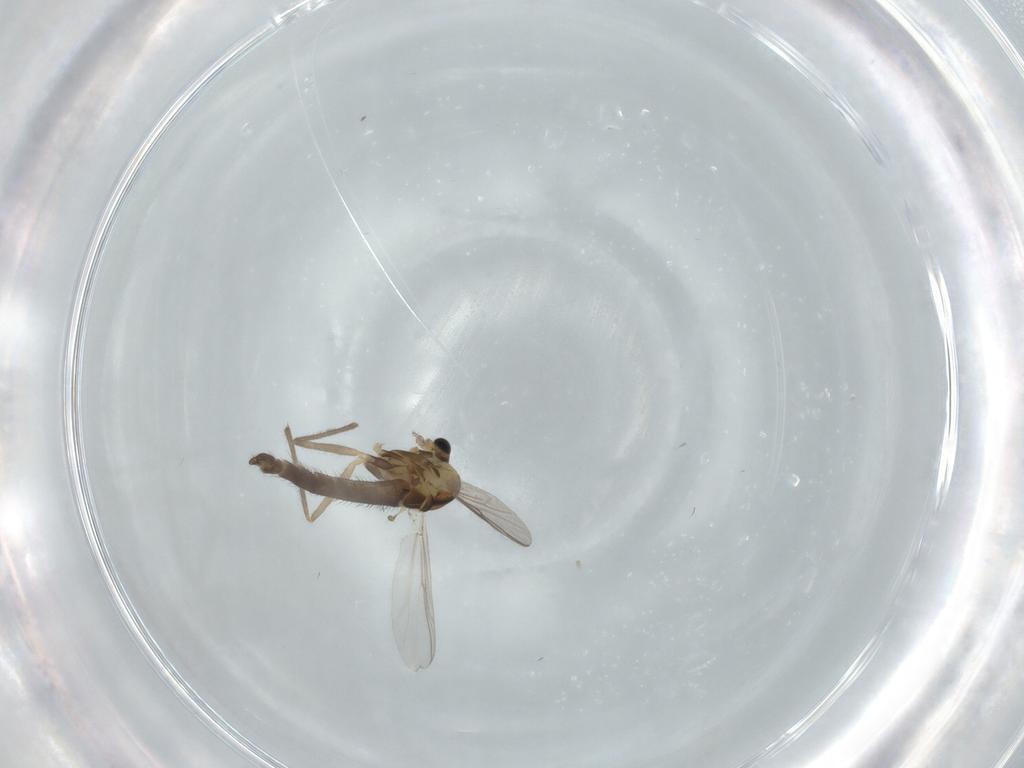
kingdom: Animalia
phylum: Arthropoda
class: Insecta
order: Diptera
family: Chironomidae
